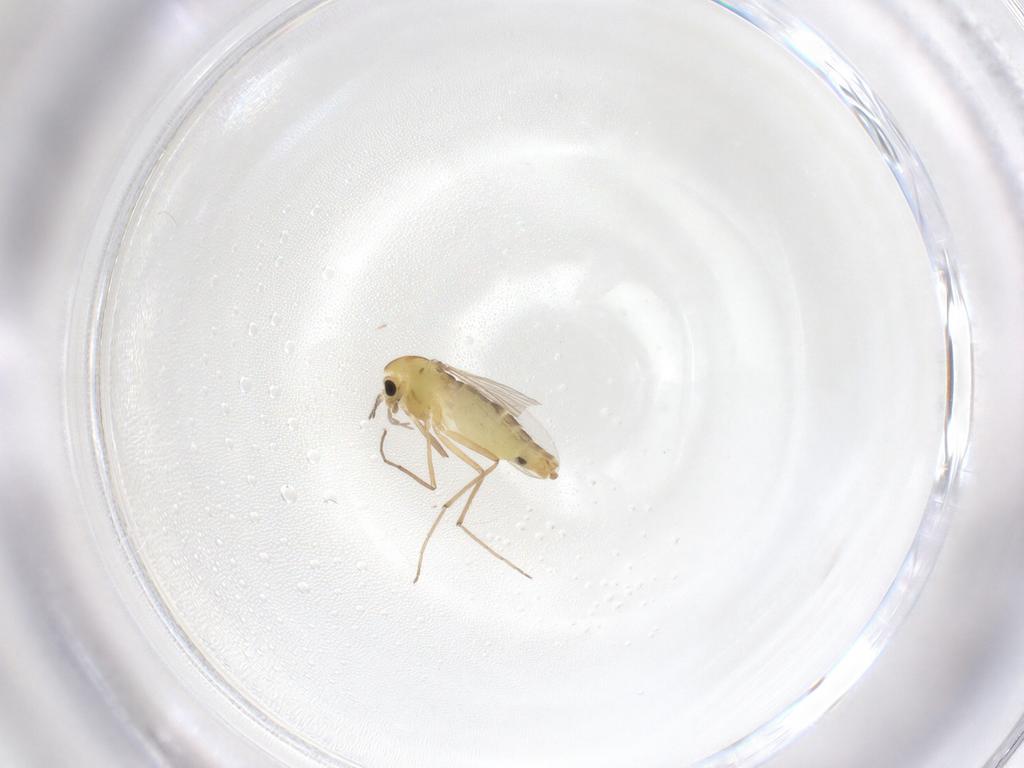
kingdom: Animalia
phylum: Arthropoda
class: Insecta
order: Diptera
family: Chironomidae
